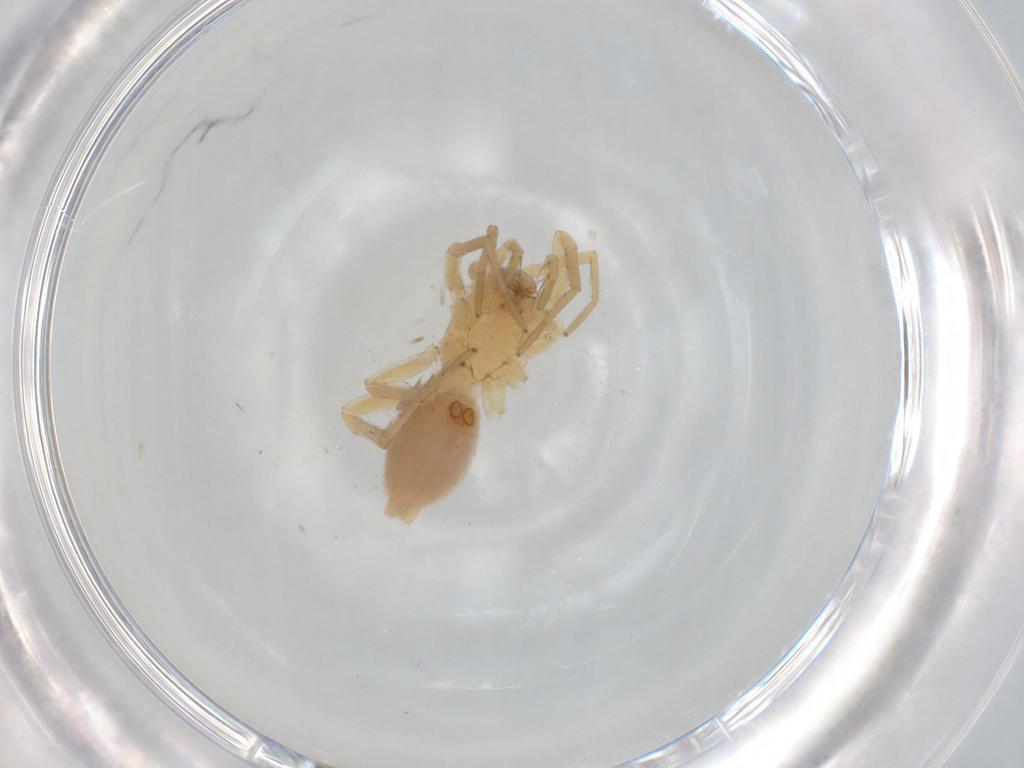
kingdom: Animalia
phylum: Arthropoda
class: Arachnida
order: Araneae
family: Gnaphosidae
